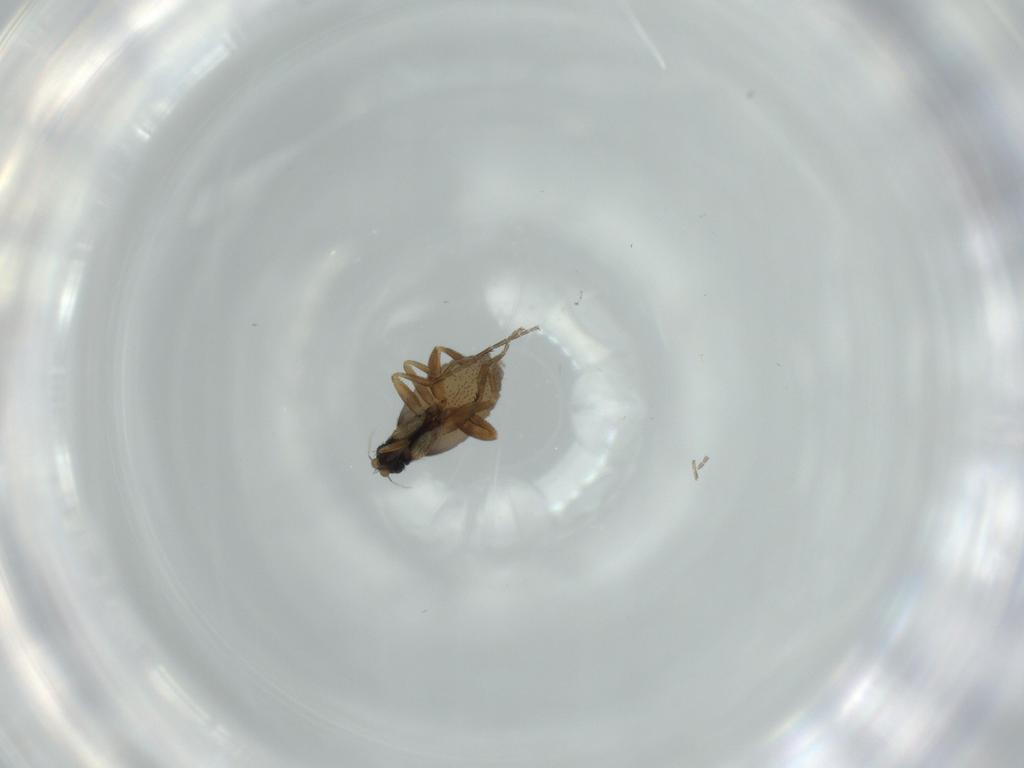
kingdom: Animalia
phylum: Arthropoda
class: Insecta
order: Diptera
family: Phoridae
